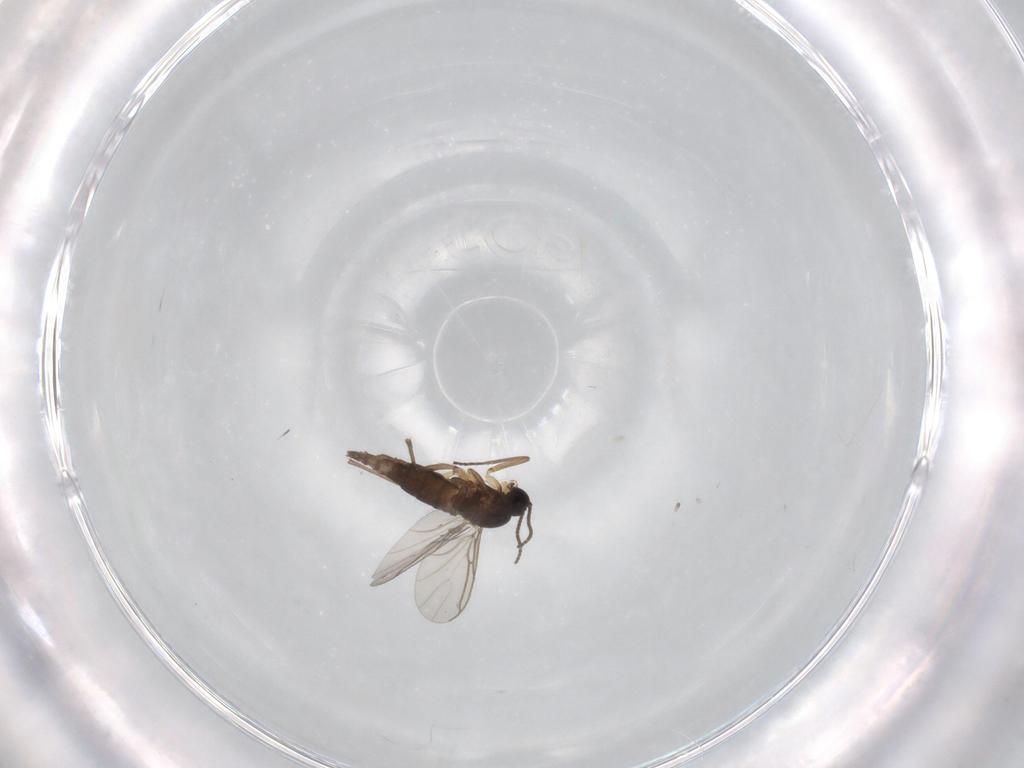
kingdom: Animalia
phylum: Arthropoda
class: Insecta
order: Diptera
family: Sciaridae
